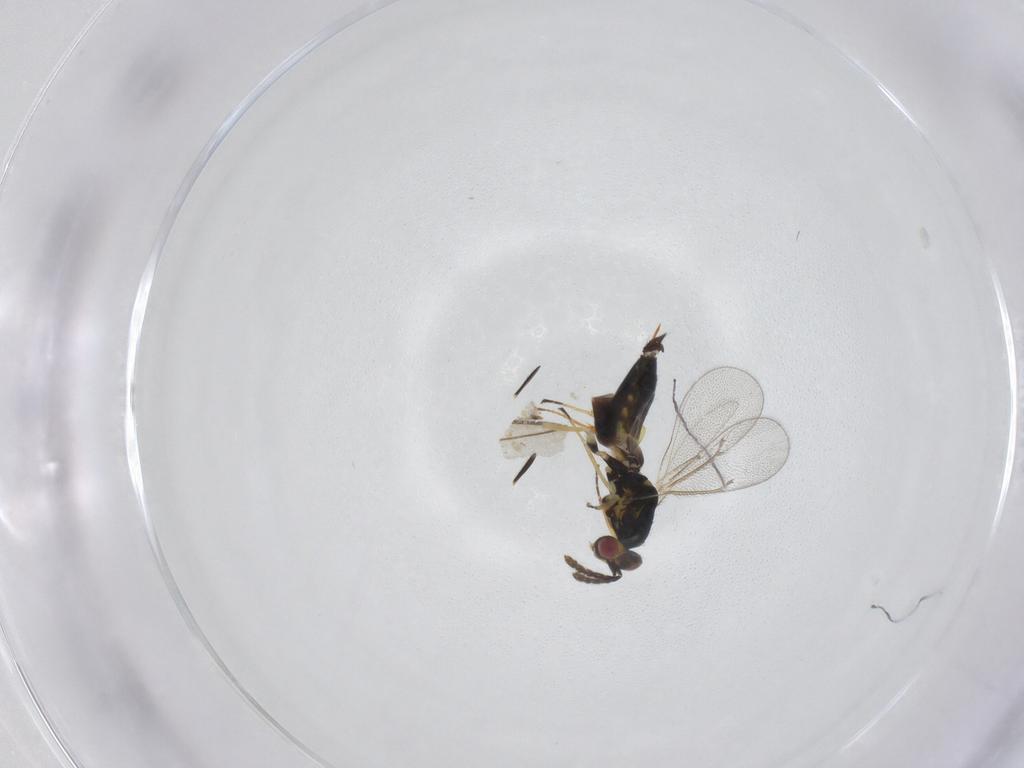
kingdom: Animalia
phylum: Arthropoda
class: Insecta
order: Hymenoptera
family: Eulophidae
